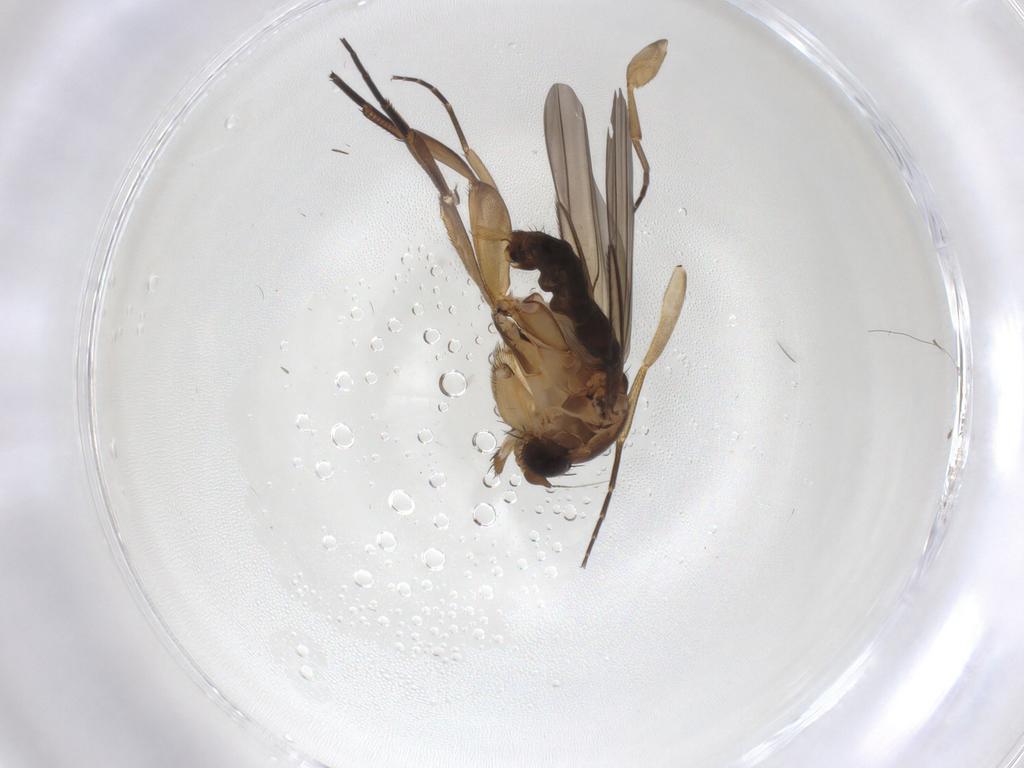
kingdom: Animalia
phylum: Arthropoda
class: Insecta
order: Diptera
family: Phoridae
